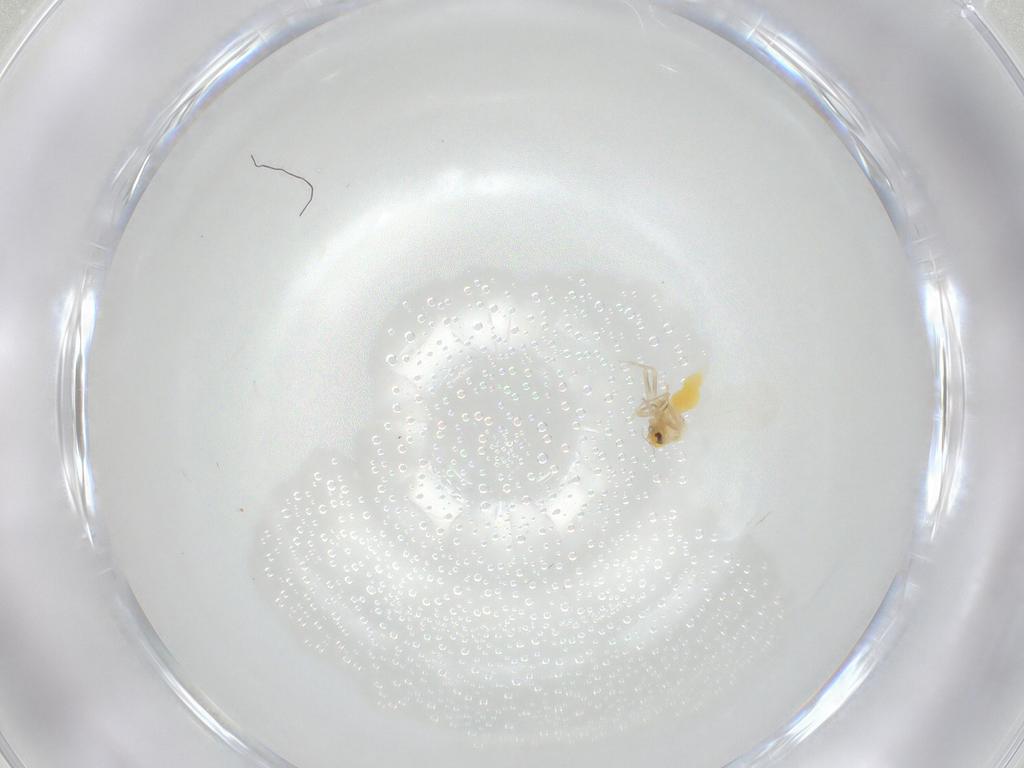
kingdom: Animalia
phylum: Arthropoda
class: Insecta
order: Hemiptera
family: Aleyrodidae
